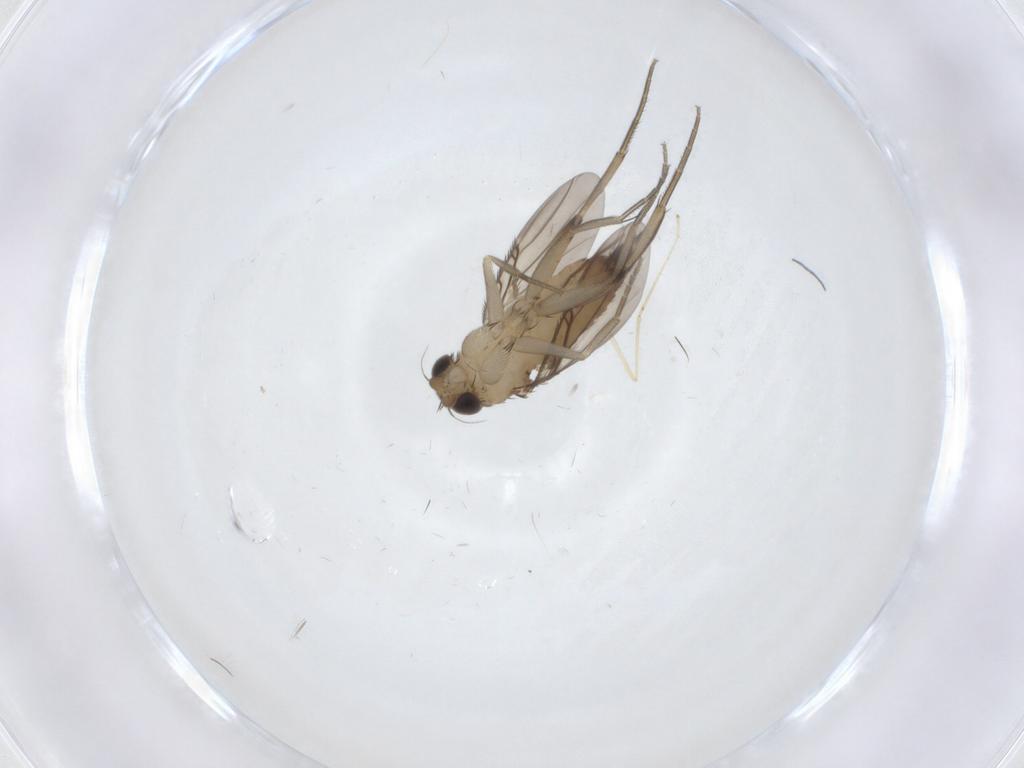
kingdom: Animalia
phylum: Arthropoda
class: Insecta
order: Diptera
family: Phoridae
